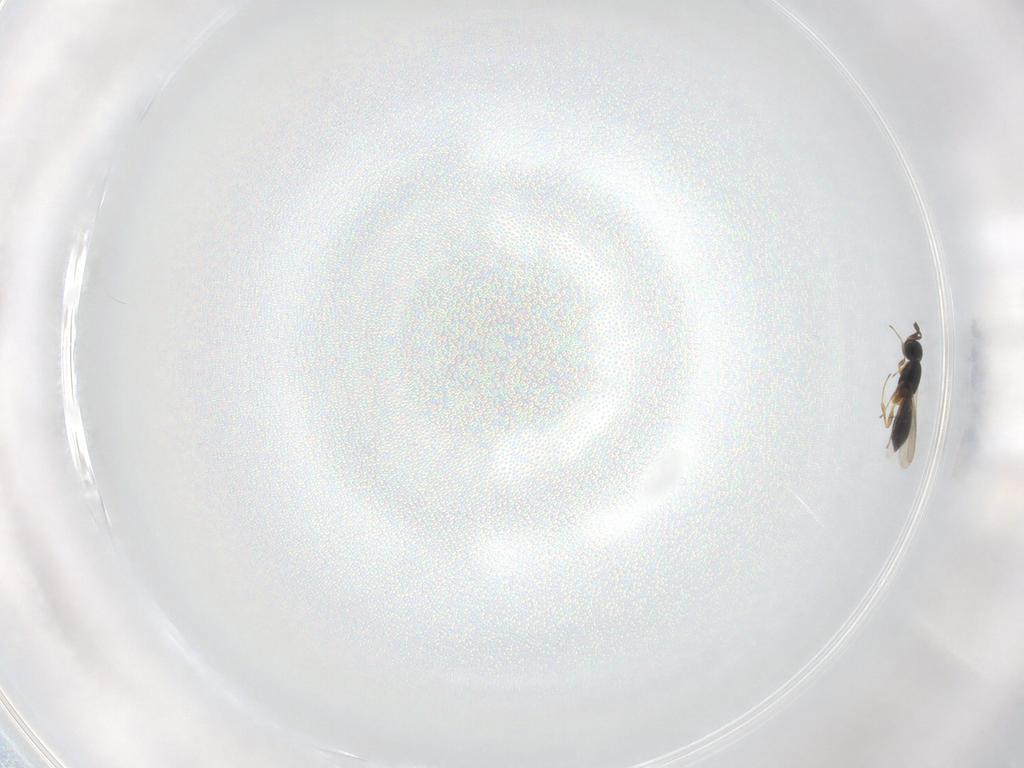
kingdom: Animalia
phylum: Arthropoda
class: Insecta
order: Hymenoptera
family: Scelionidae
